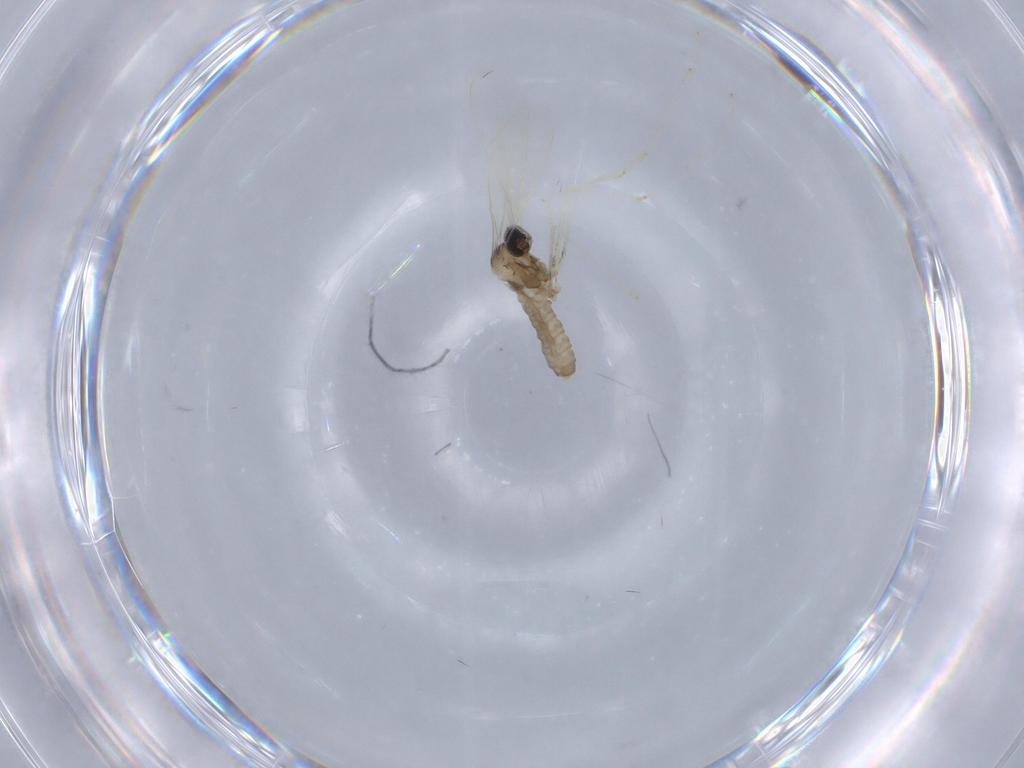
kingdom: Animalia
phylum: Arthropoda
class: Insecta
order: Diptera
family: Cecidomyiidae
